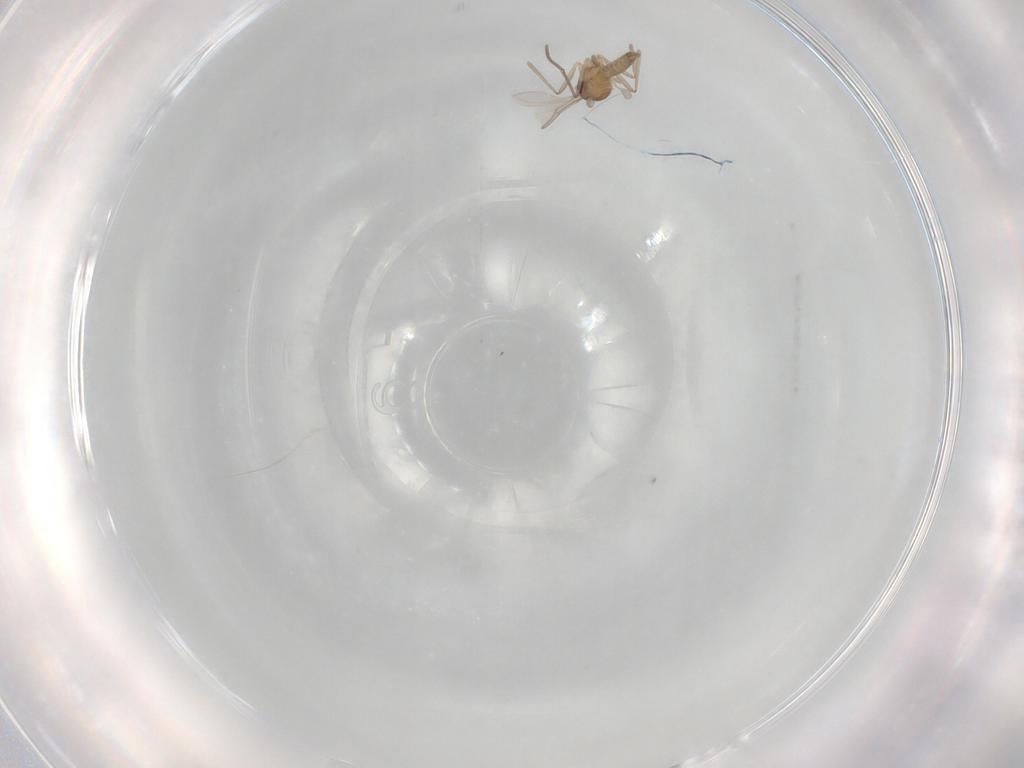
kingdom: Animalia
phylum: Arthropoda
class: Insecta
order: Diptera
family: Cecidomyiidae
